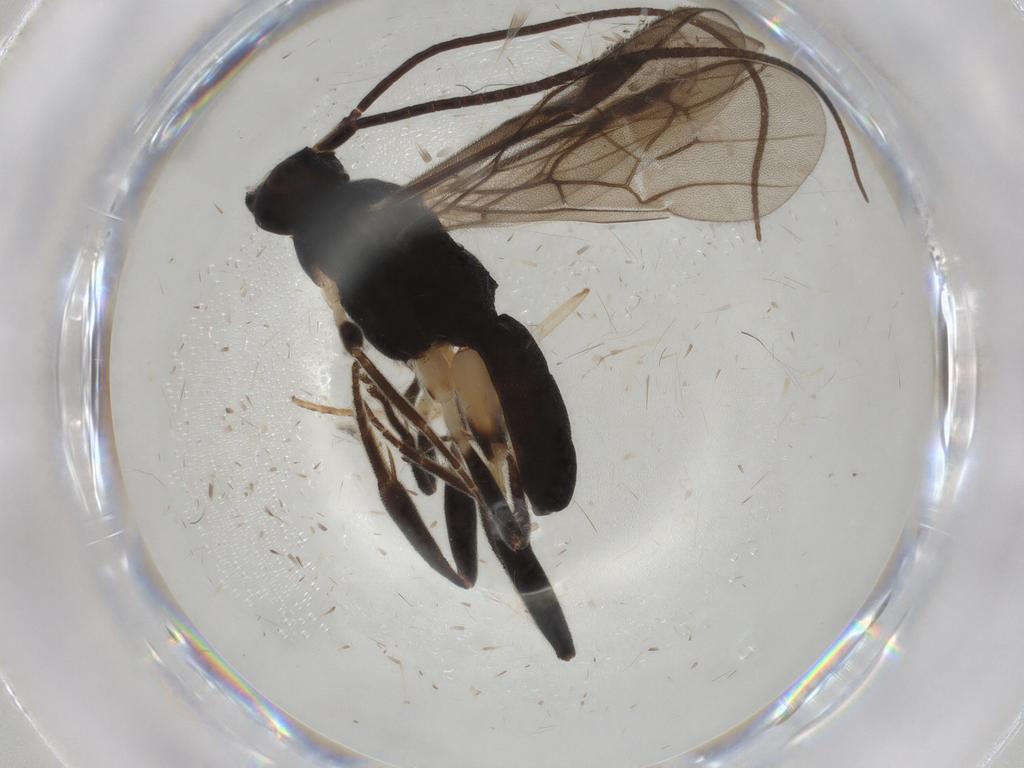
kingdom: Animalia
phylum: Arthropoda
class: Insecta
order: Hymenoptera
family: Braconidae
